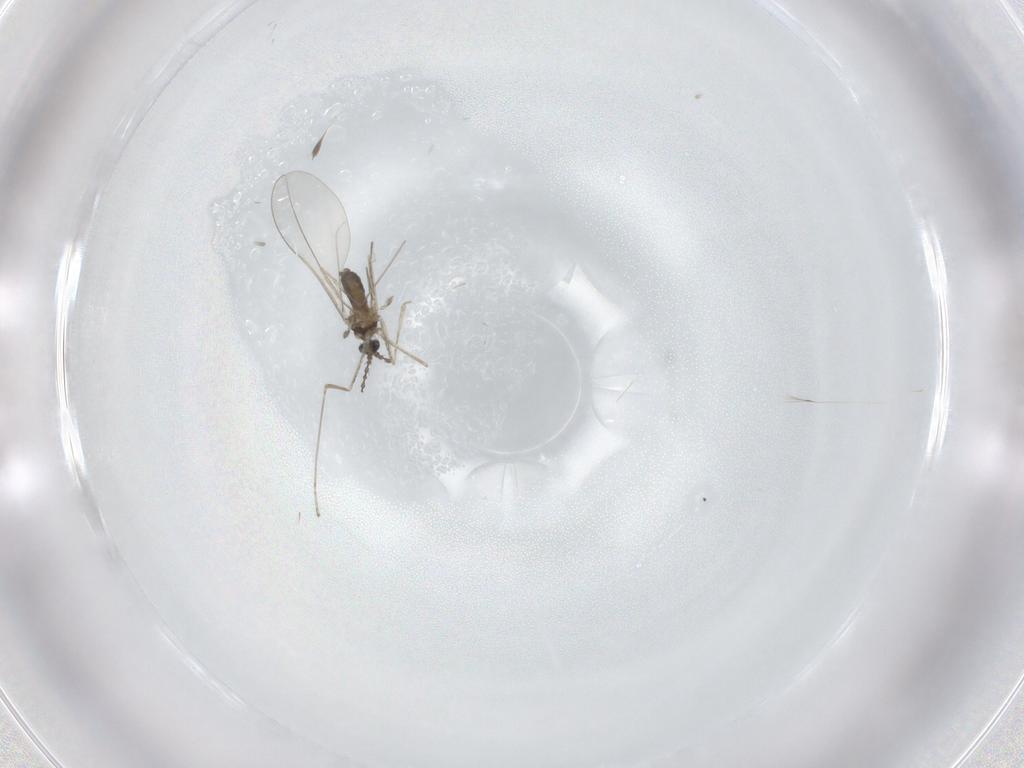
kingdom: Animalia
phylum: Arthropoda
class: Insecta
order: Diptera
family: Cecidomyiidae
